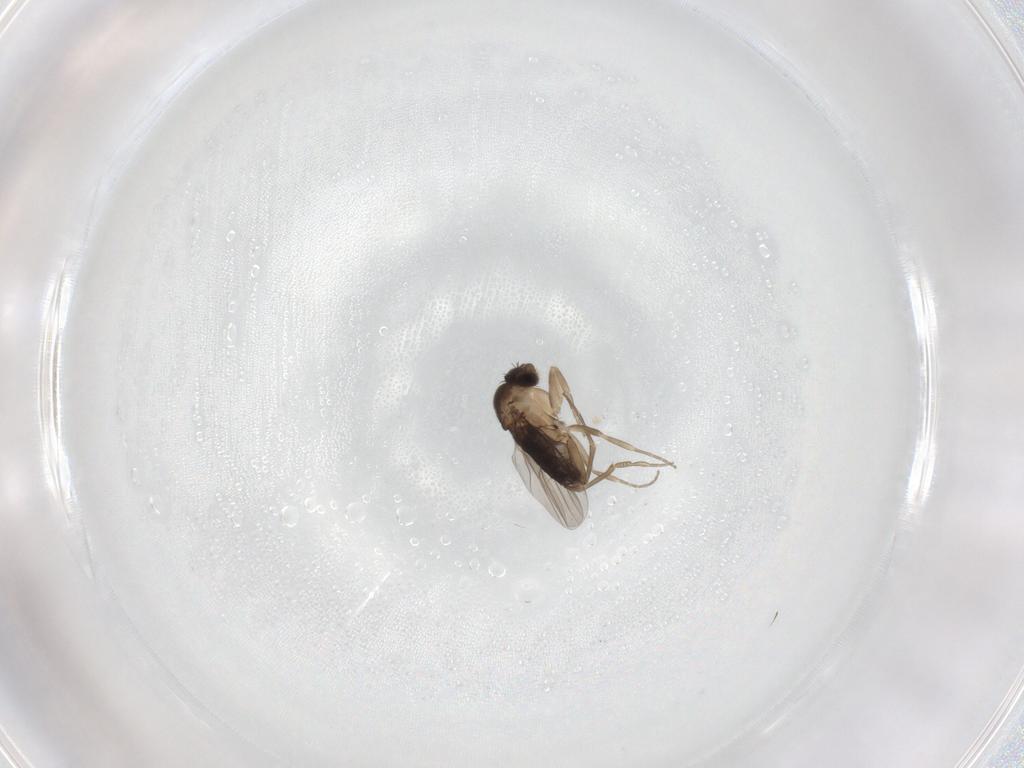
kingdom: Animalia
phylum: Arthropoda
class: Insecta
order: Diptera
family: Phoridae
